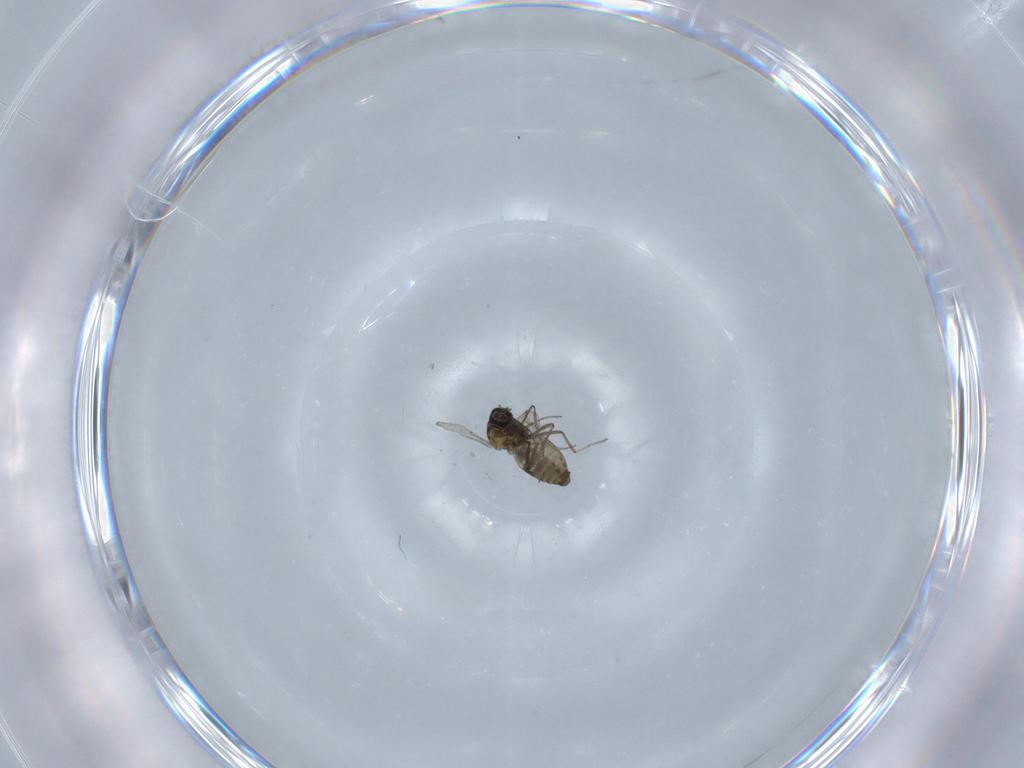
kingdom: Animalia
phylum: Arthropoda
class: Insecta
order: Diptera
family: Ceratopogonidae
